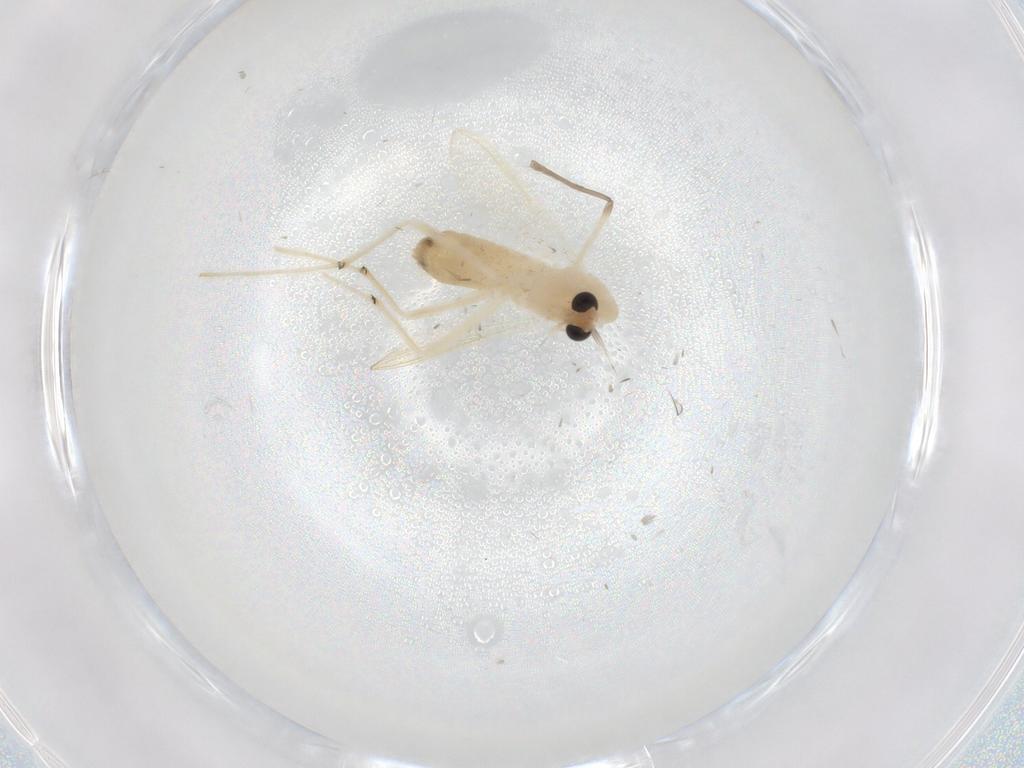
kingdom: Animalia
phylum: Arthropoda
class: Insecta
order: Diptera
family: Chironomidae
